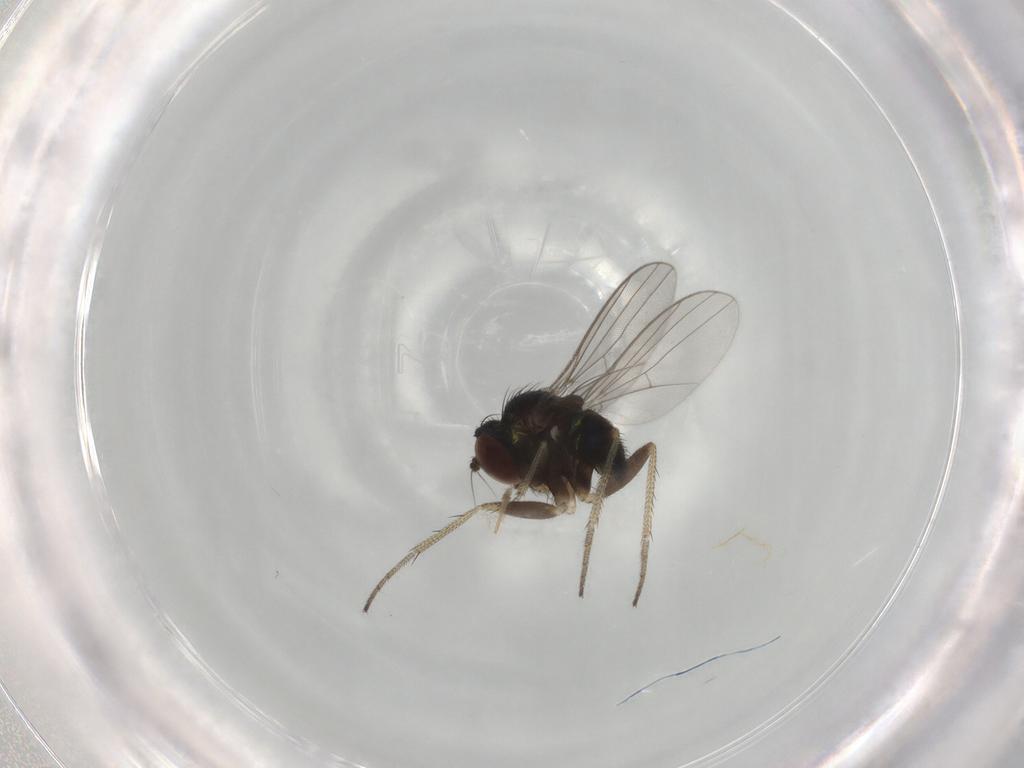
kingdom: Animalia
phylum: Arthropoda
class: Insecta
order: Diptera
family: Dolichopodidae
